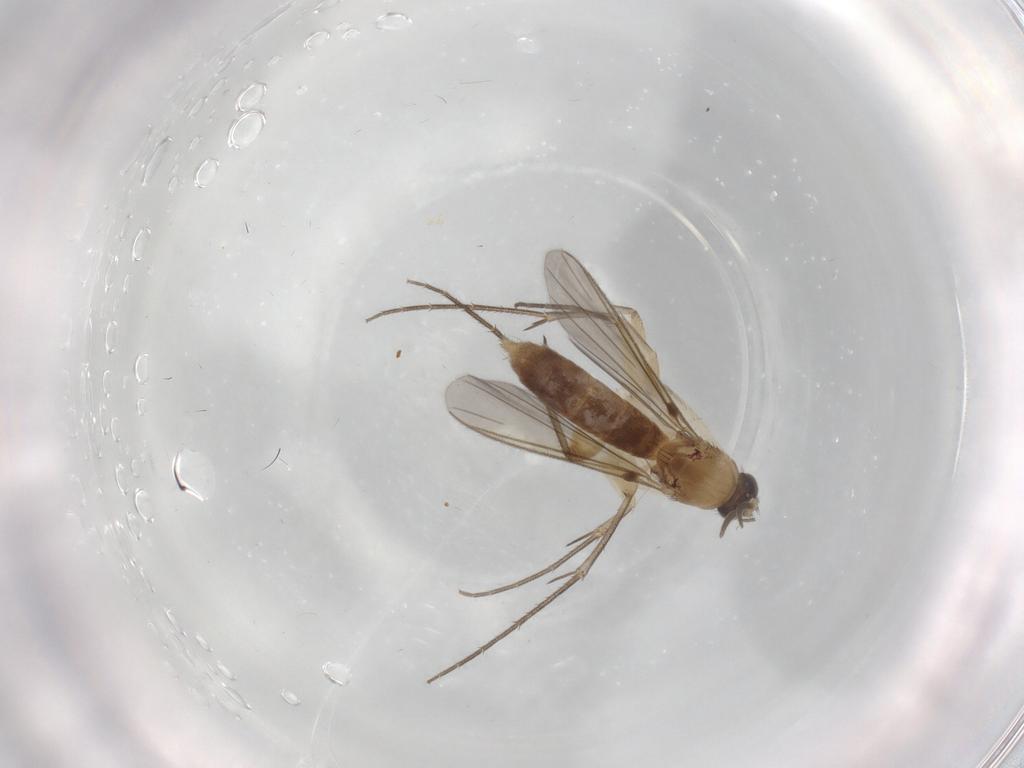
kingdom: Animalia
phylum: Arthropoda
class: Insecta
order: Diptera
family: Mycetophilidae
